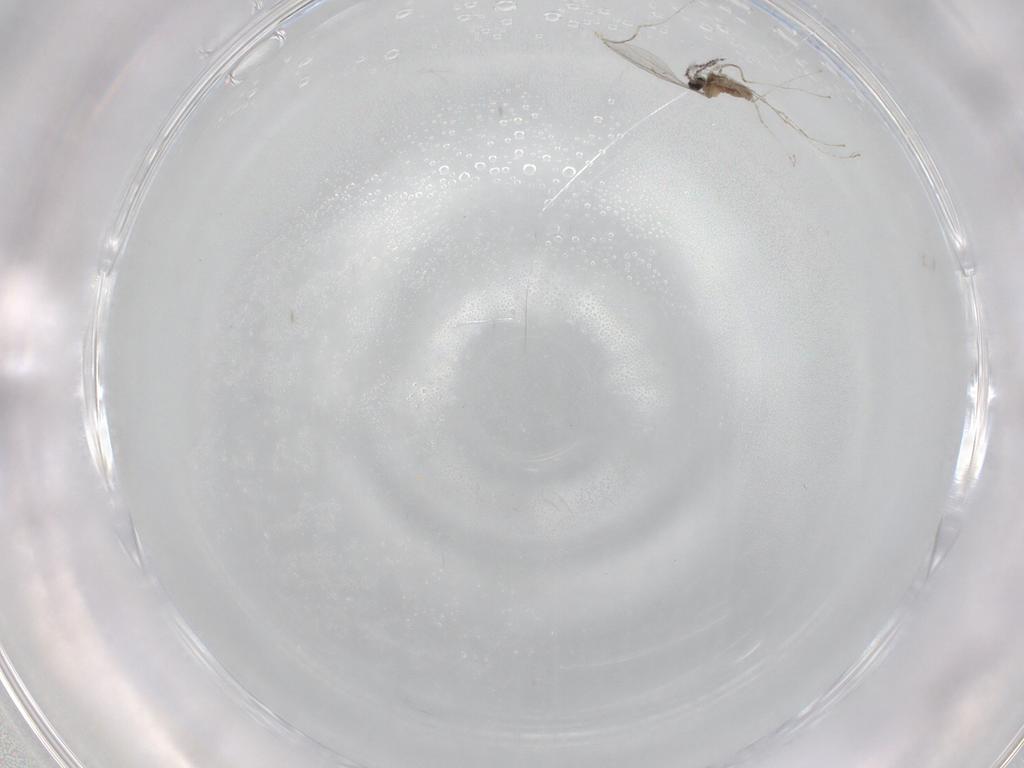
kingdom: Animalia
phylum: Arthropoda
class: Insecta
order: Diptera
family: Cecidomyiidae
